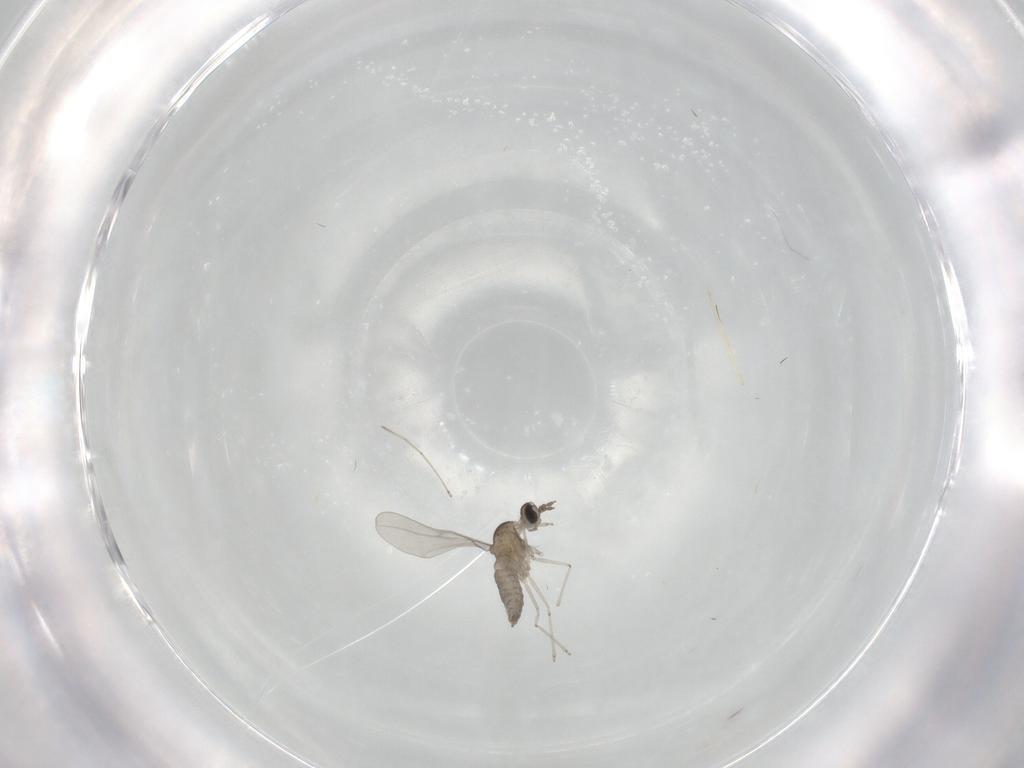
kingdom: Animalia
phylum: Arthropoda
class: Insecta
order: Diptera
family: Cecidomyiidae
